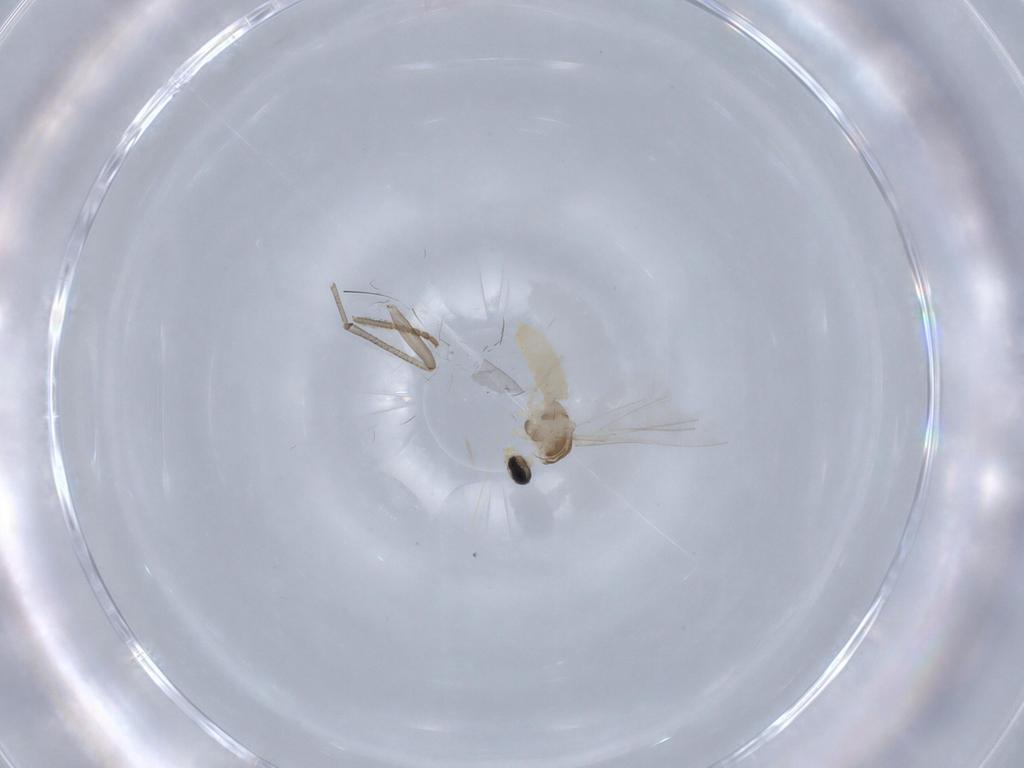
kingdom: Animalia
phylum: Arthropoda
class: Insecta
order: Diptera
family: Cecidomyiidae
